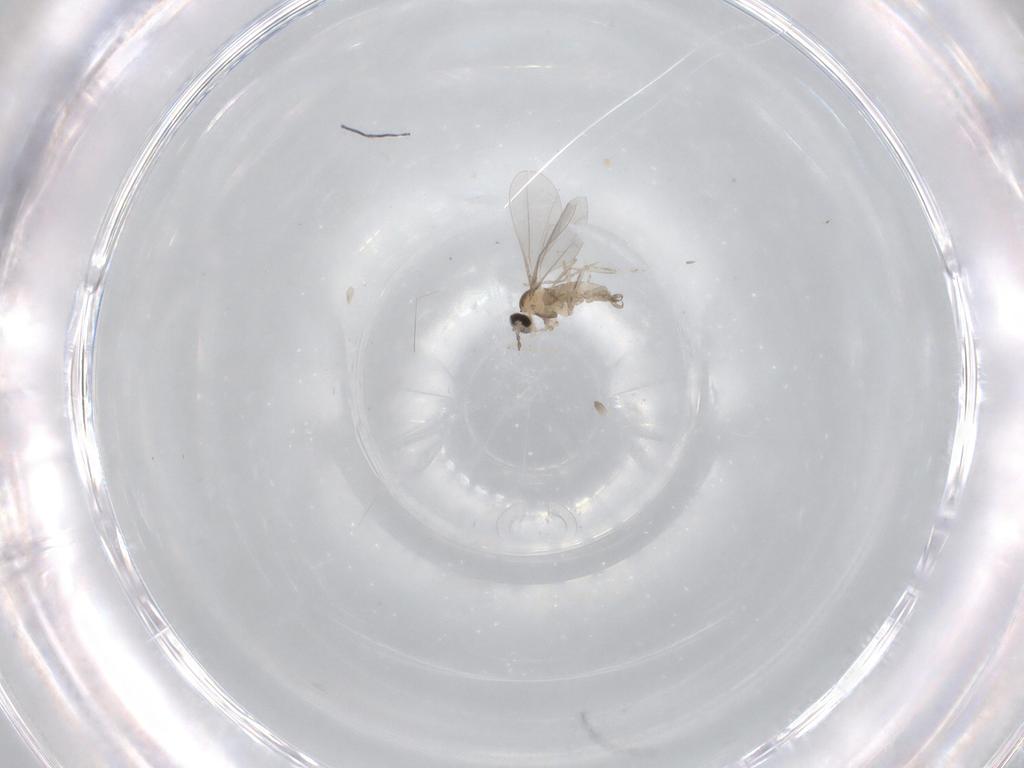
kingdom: Animalia
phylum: Arthropoda
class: Insecta
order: Diptera
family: Cecidomyiidae
